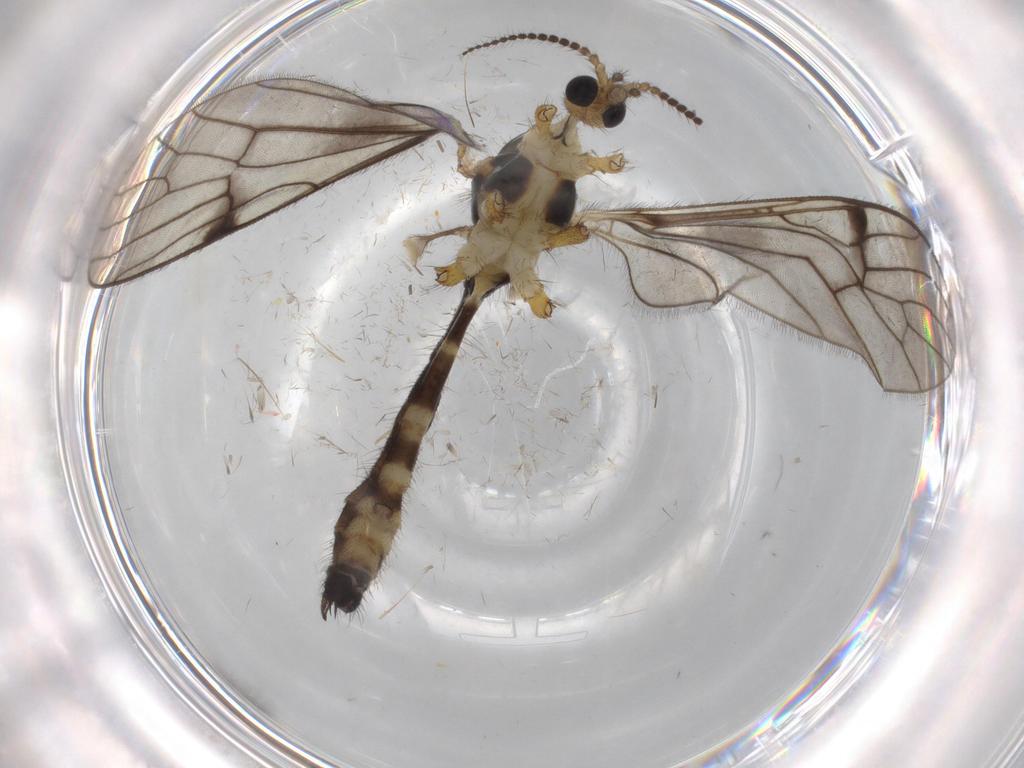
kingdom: Animalia
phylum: Arthropoda
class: Insecta
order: Diptera
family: Limoniidae
